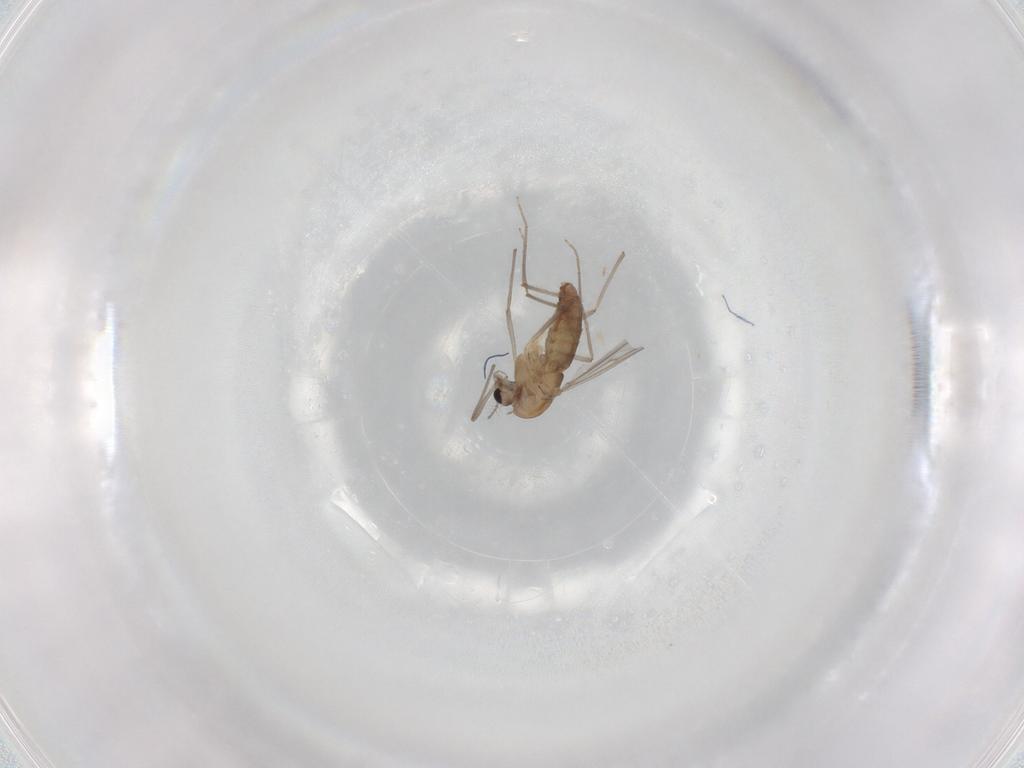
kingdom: Animalia
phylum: Arthropoda
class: Insecta
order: Diptera
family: Chironomidae
